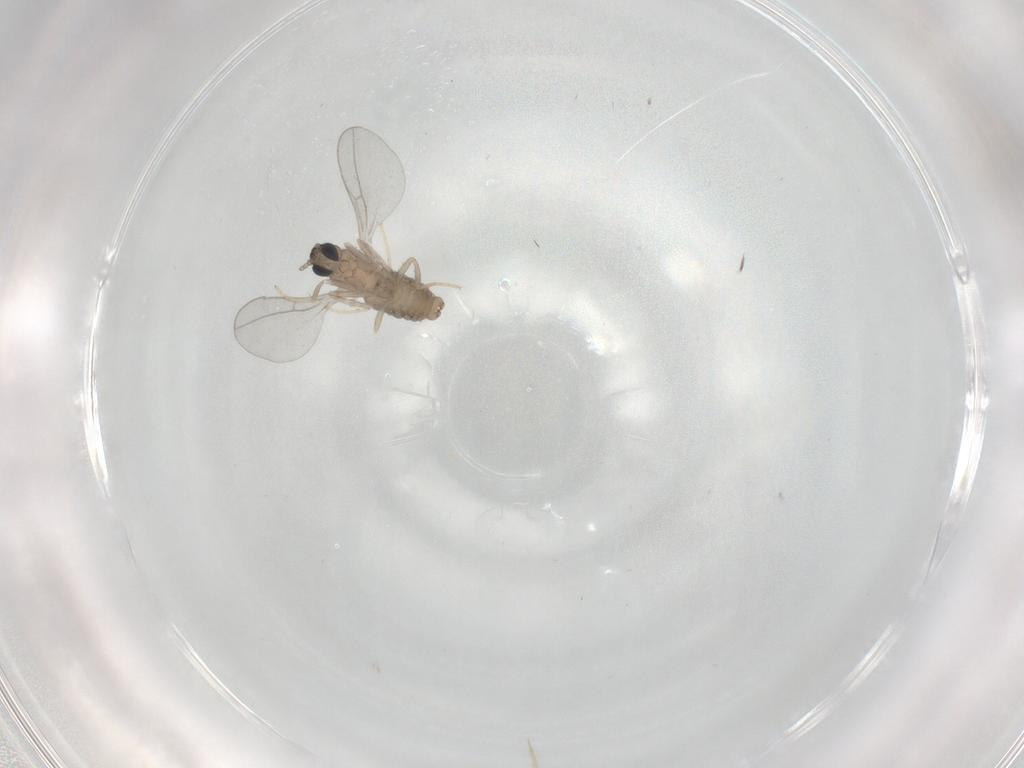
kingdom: Animalia
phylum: Arthropoda
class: Insecta
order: Diptera
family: Cecidomyiidae
